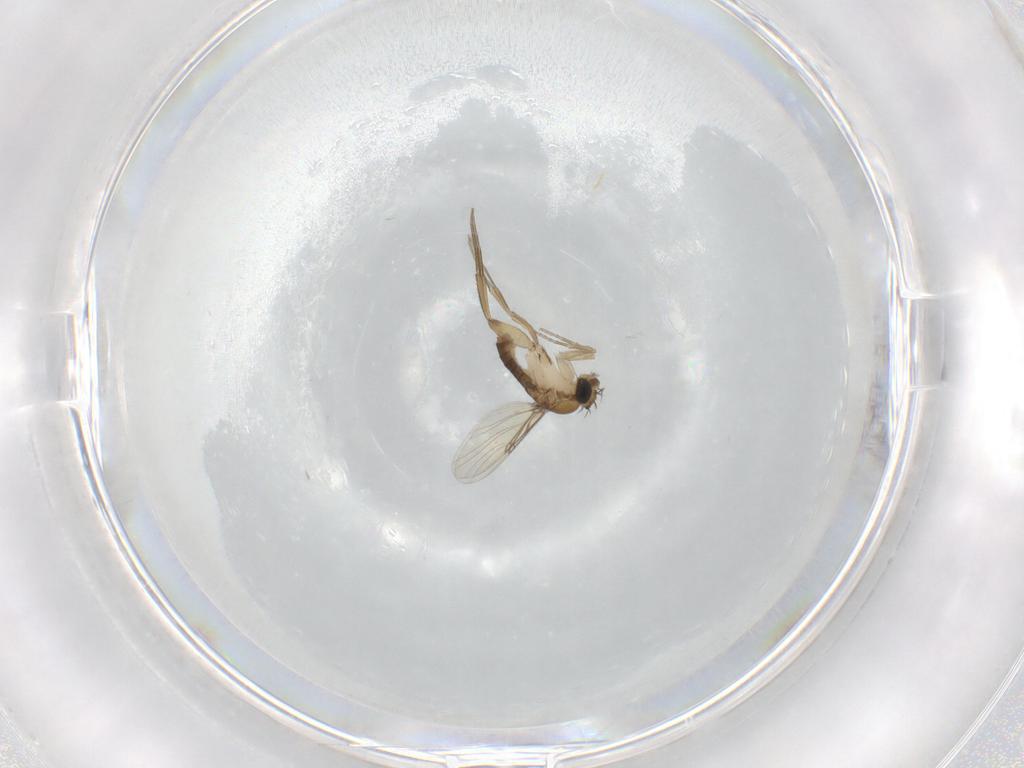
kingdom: Animalia
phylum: Arthropoda
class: Insecta
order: Diptera
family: Phoridae
